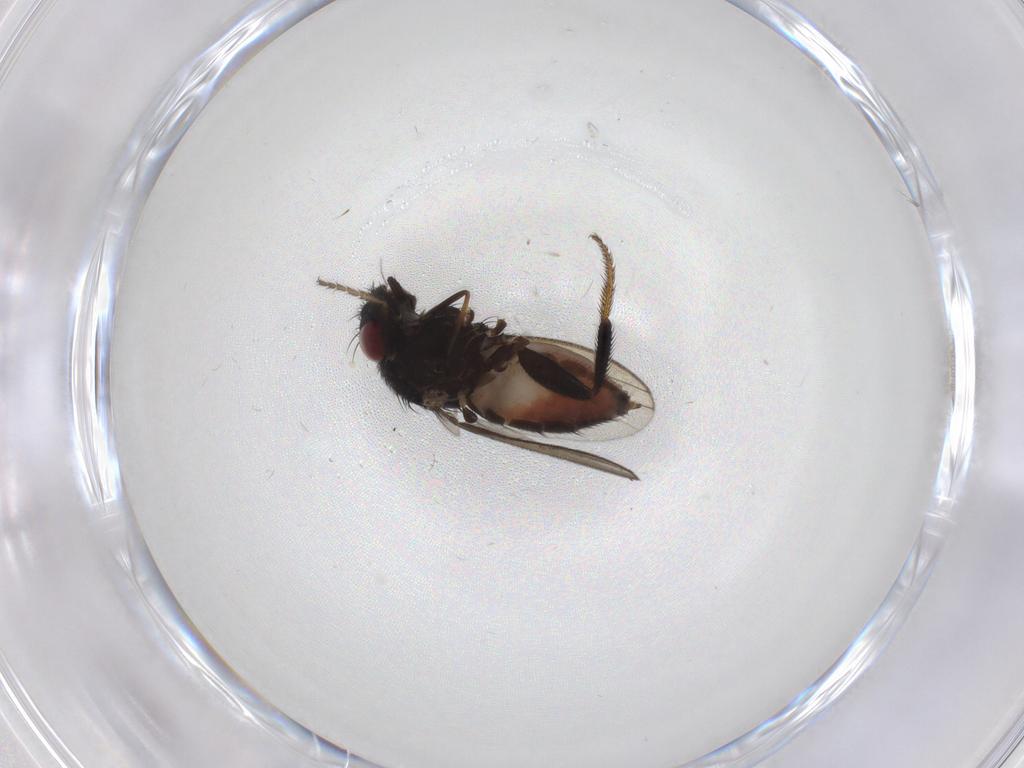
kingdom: Animalia
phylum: Arthropoda
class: Insecta
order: Diptera
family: Milichiidae
